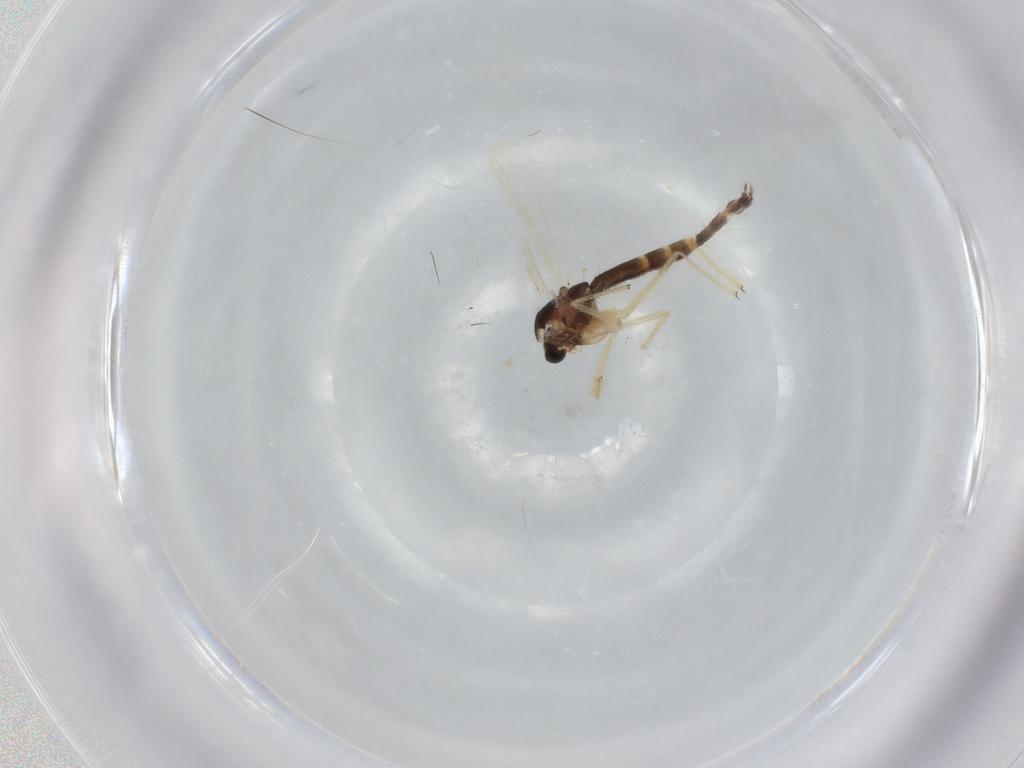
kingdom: Animalia
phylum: Arthropoda
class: Insecta
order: Diptera
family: Chironomidae
